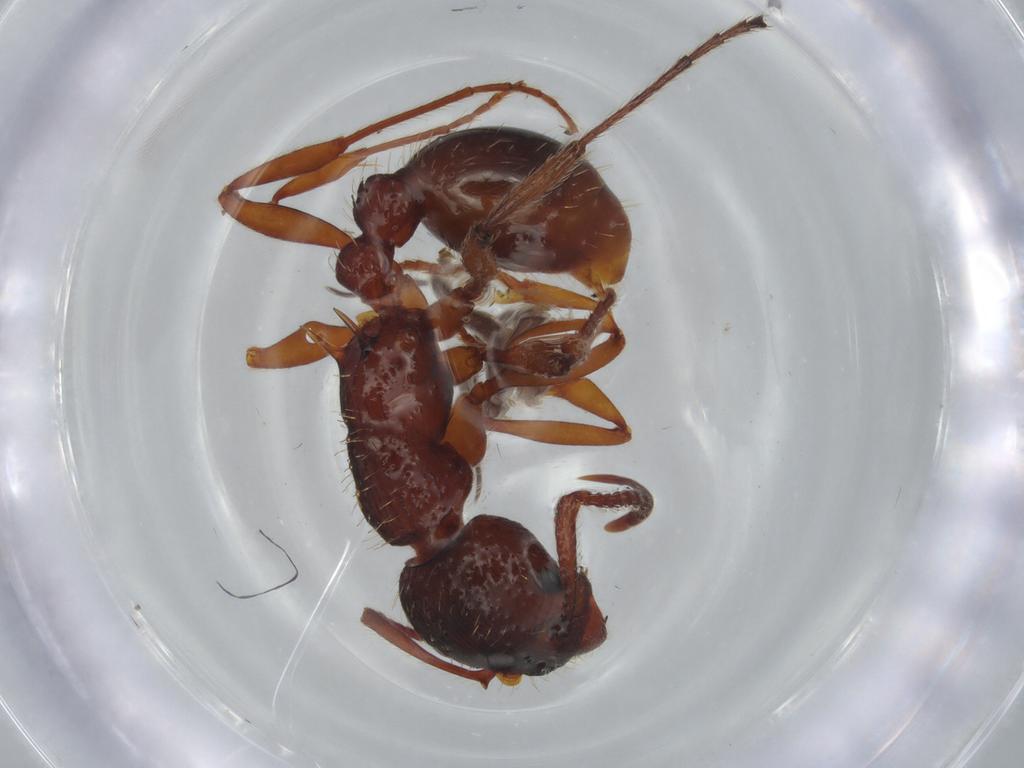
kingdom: Animalia
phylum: Arthropoda
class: Insecta
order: Hymenoptera
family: Formicidae
